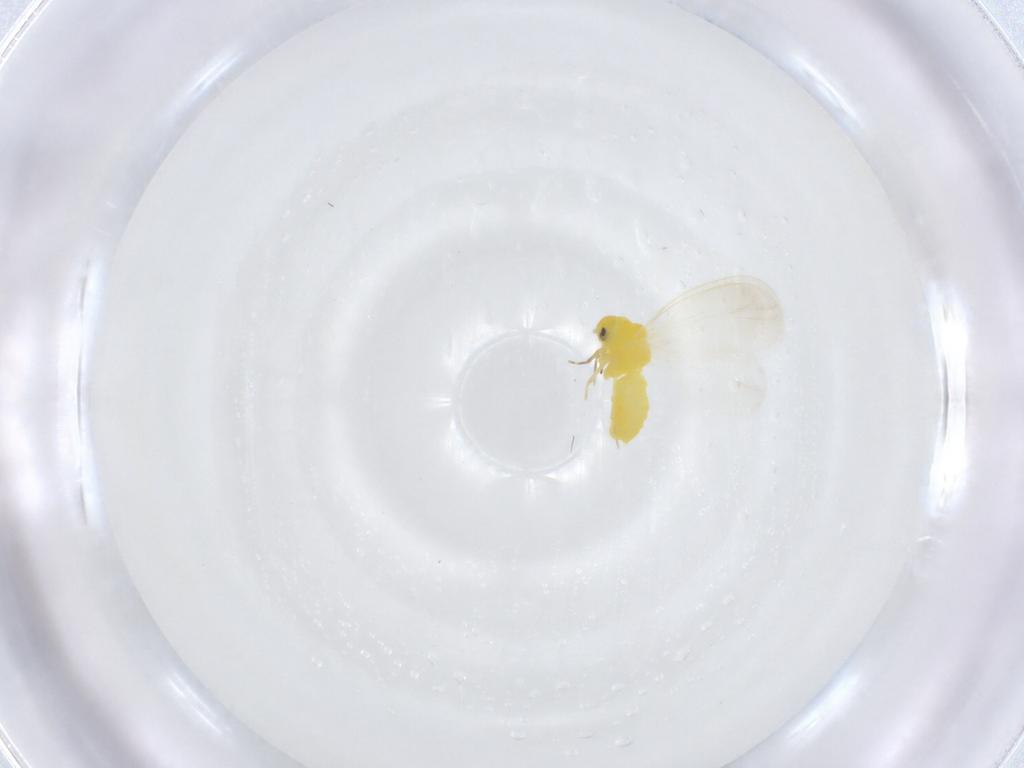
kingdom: Animalia
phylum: Arthropoda
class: Insecta
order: Hemiptera
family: Aleyrodidae
